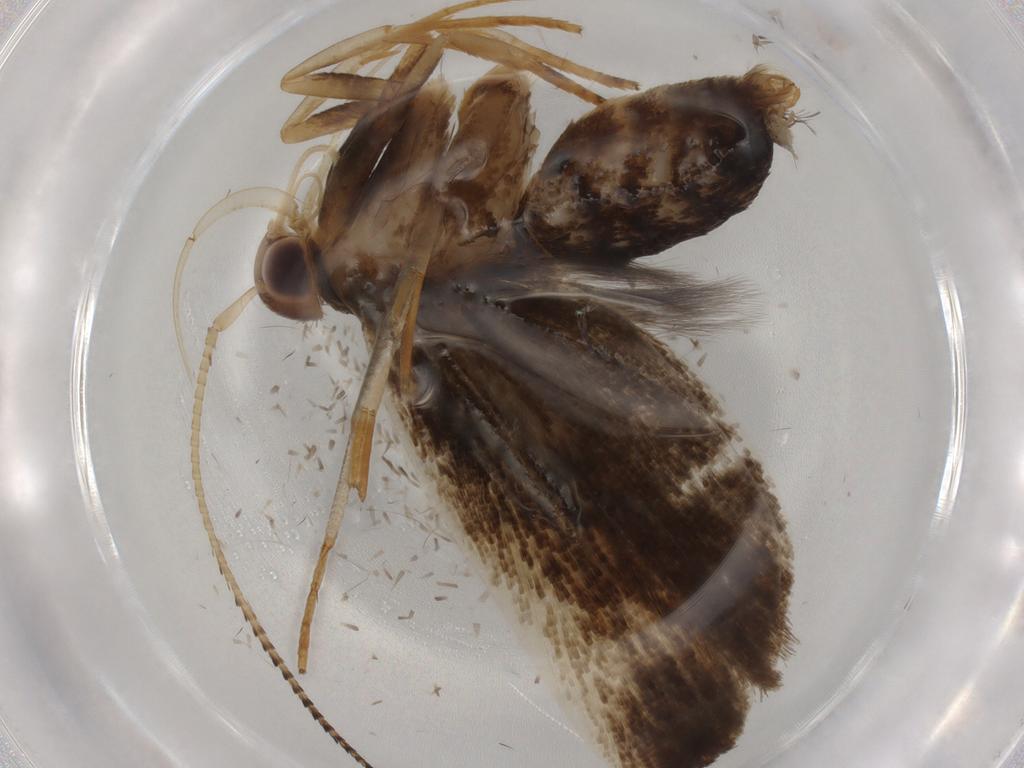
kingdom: Animalia
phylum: Arthropoda
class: Insecta
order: Lepidoptera
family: Gelechiidae
